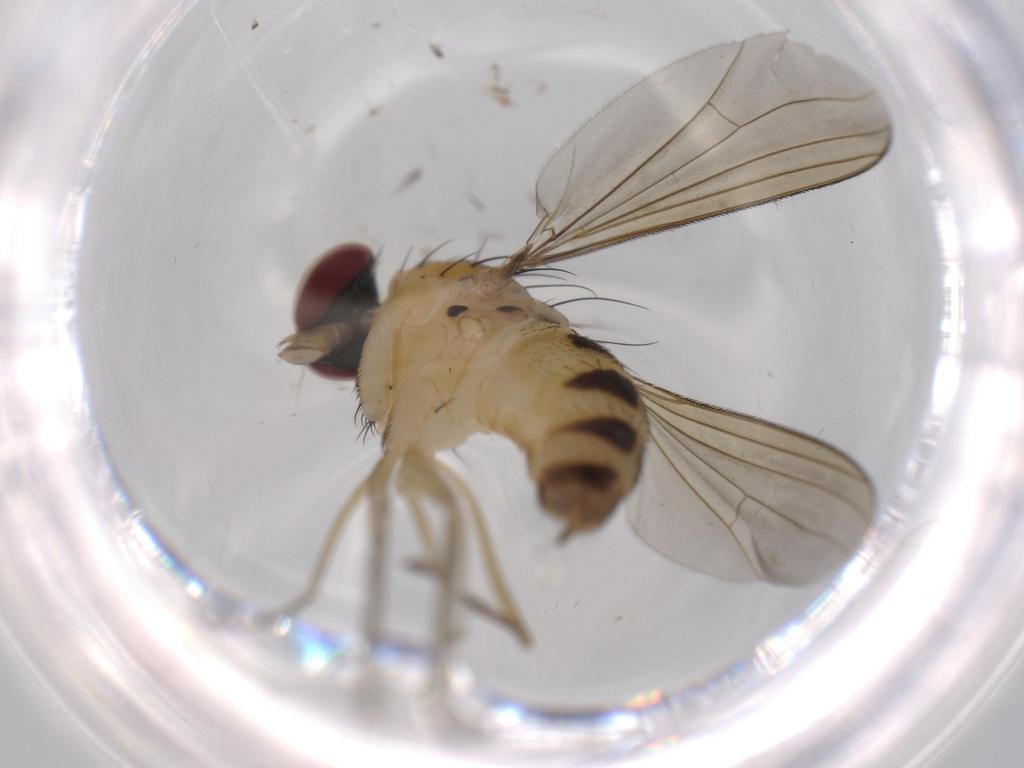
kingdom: Animalia
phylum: Arthropoda
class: Insecta
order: Diptera
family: Dolichopodidae
